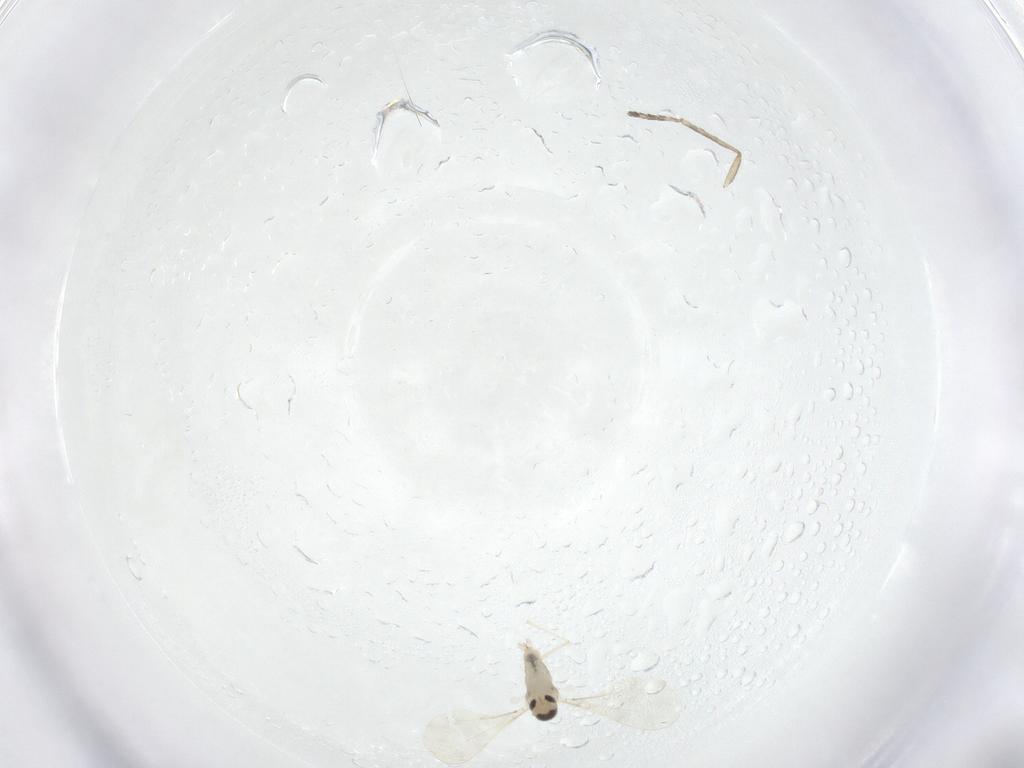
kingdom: Animalia
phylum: Arthropoda
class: Insecta
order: Diptera
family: Cecidomyiidae
